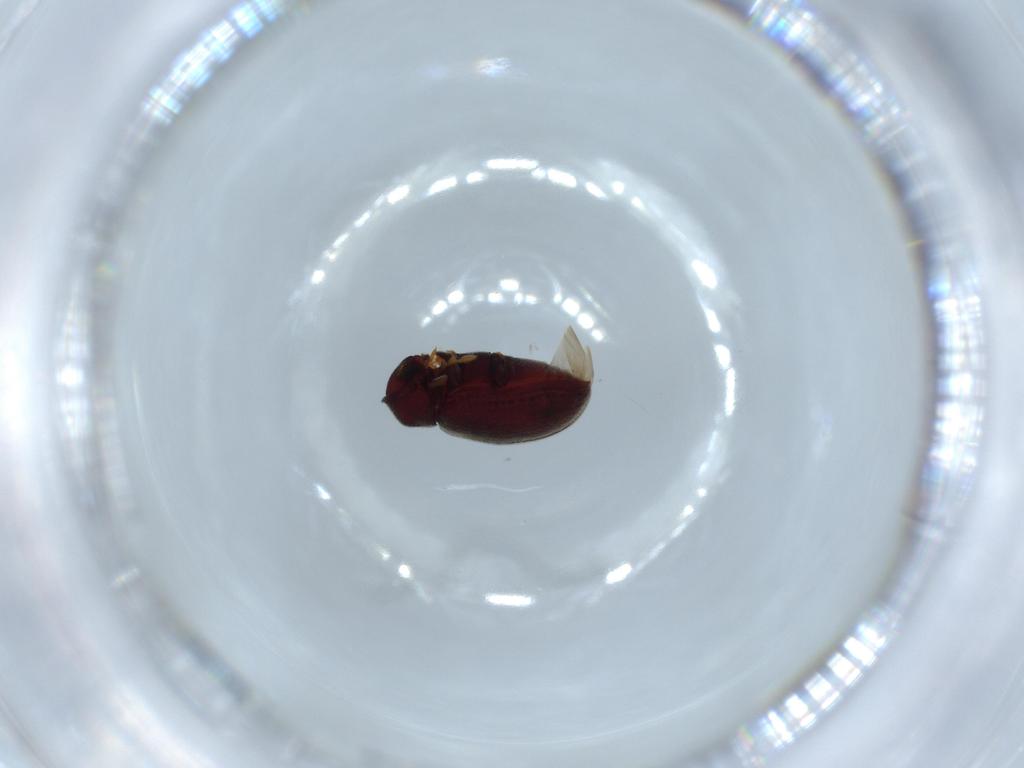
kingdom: Animalia
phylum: Arthropoda
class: Insecta
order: Coleoptera
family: Anobiidae
